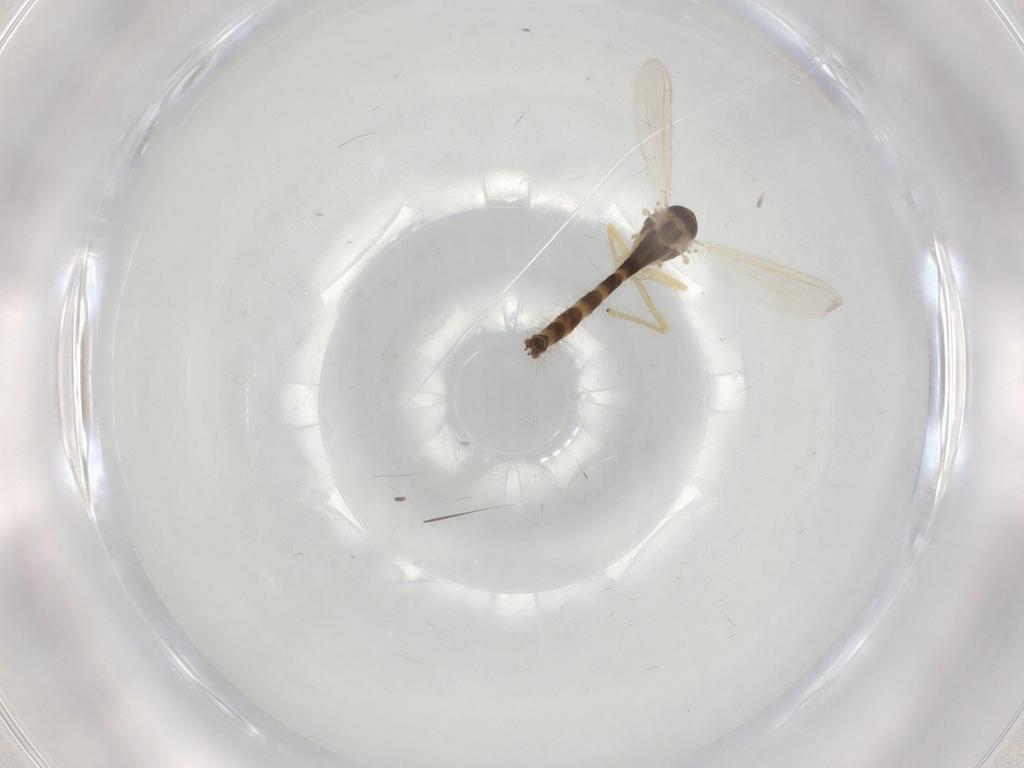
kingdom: Animalia
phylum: Arthropoda
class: Insecta
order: Diptera
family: Chironomidae
